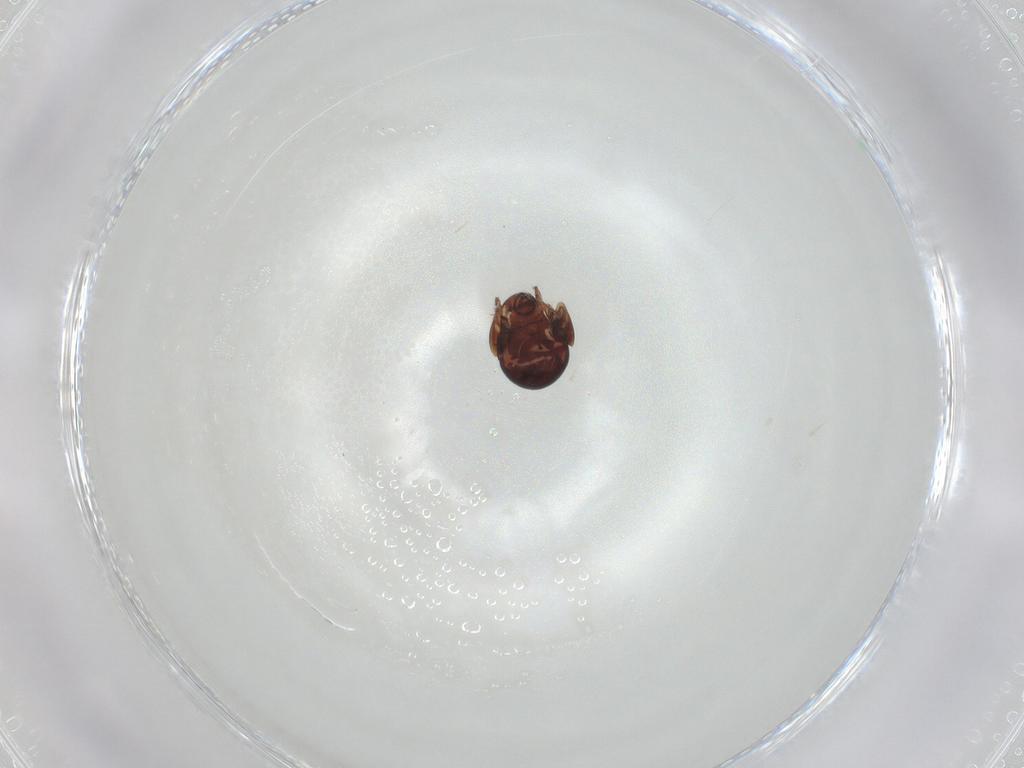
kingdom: Animalia
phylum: Arthropoda
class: Arachnida
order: Sarcoptiformes
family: Galumnidae
